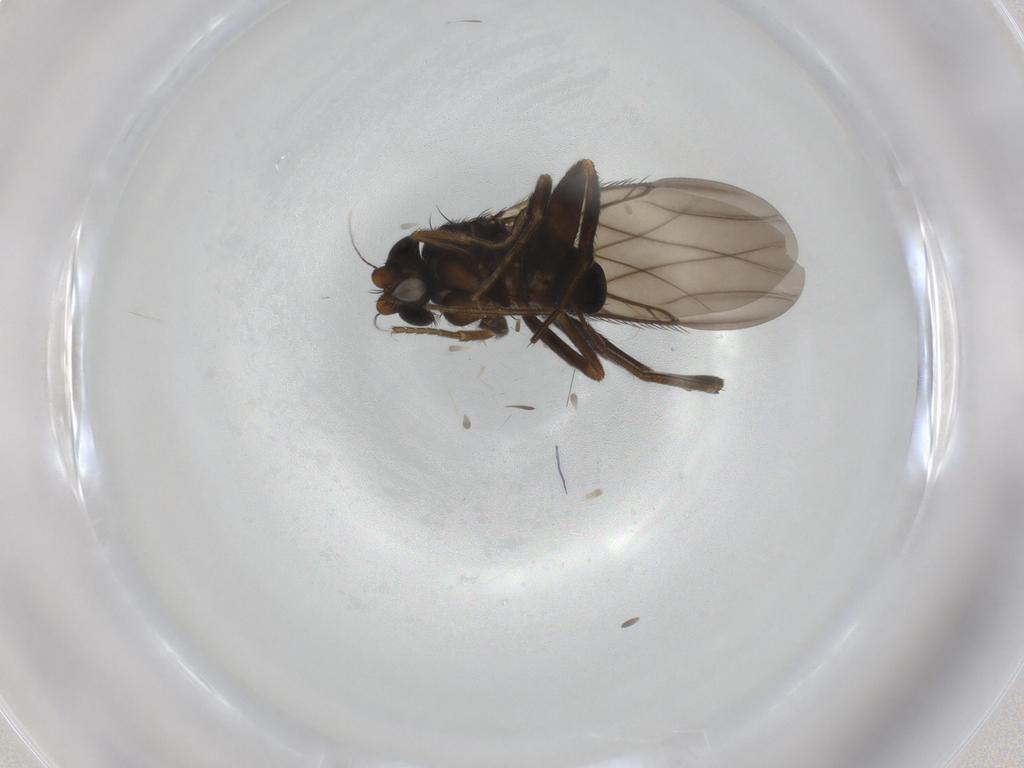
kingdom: Animalia
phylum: Arthropoda
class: Insecta
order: Diptera
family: Phoridae
